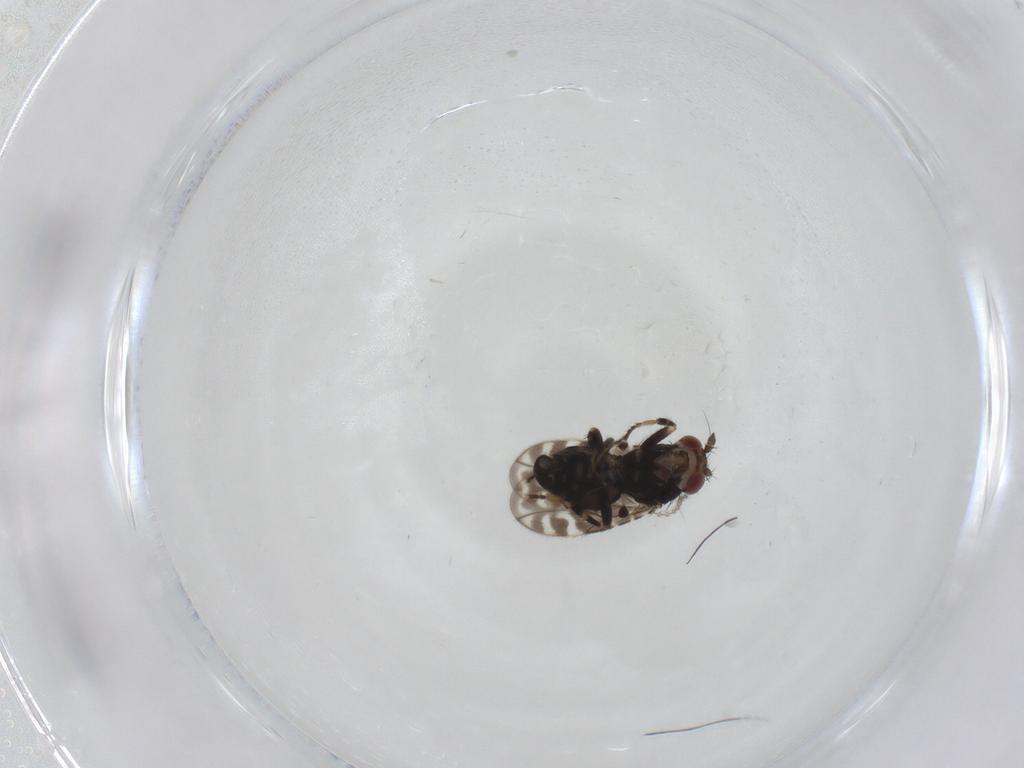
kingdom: Animalia
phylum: Arthropoda
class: Insecta
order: Diptera
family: Sphaeroceridae
